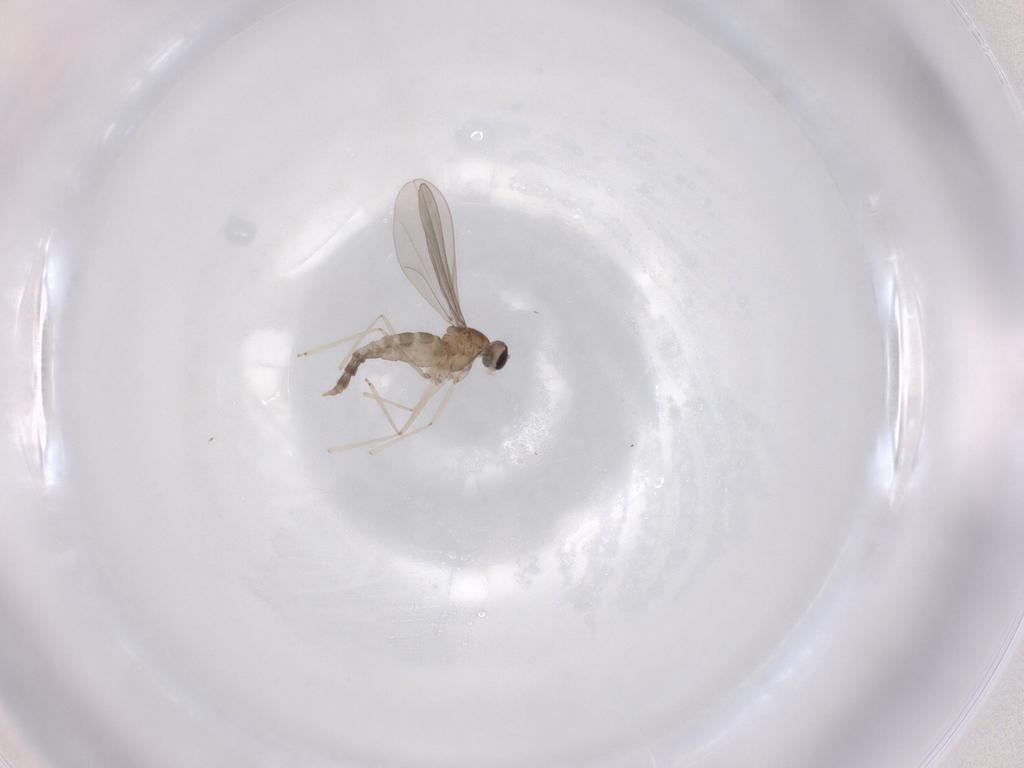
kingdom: Animalia
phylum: Arthropoda
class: Insecta
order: Diptera
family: Cecidomyiidae
